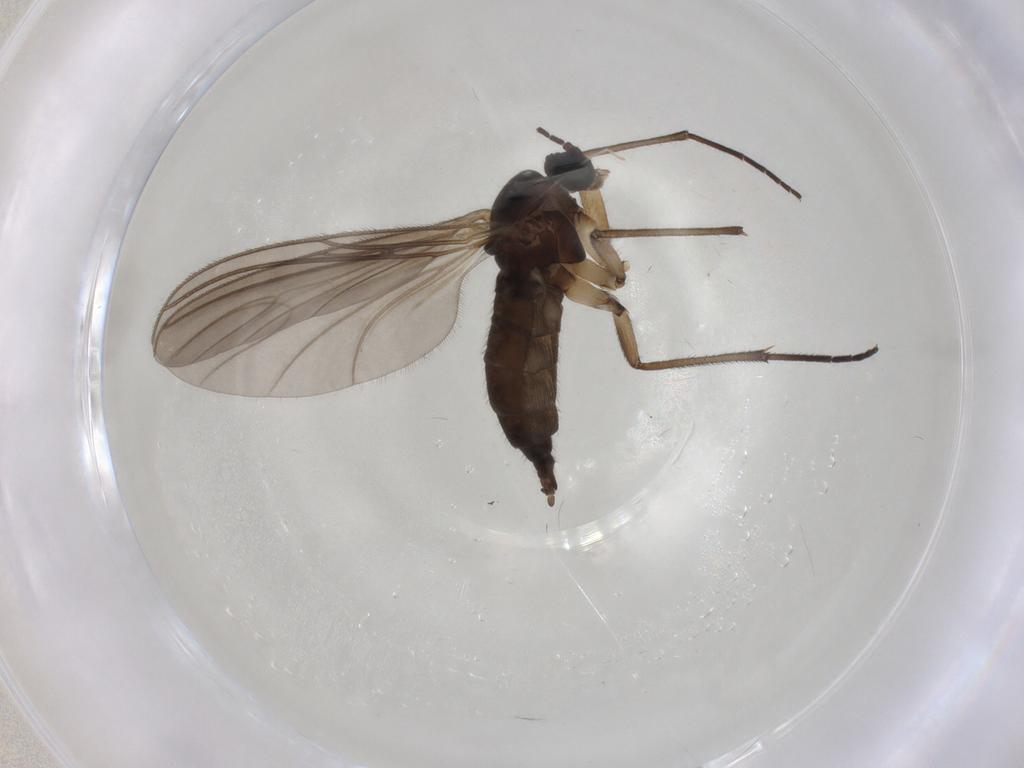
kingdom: Animalia
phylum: Arthropoda
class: Insecta
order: Diptera
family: Cecidomyiidae
